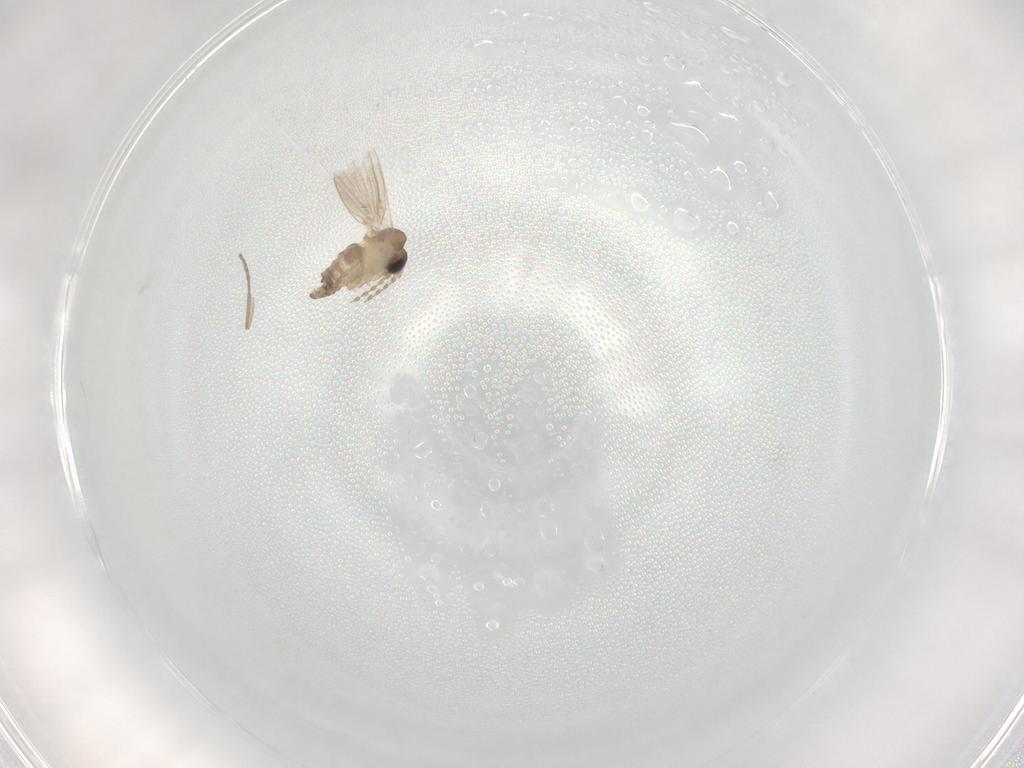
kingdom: Animalia
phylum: Arthropoda
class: Insecta
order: Diptera
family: Psychodidae
